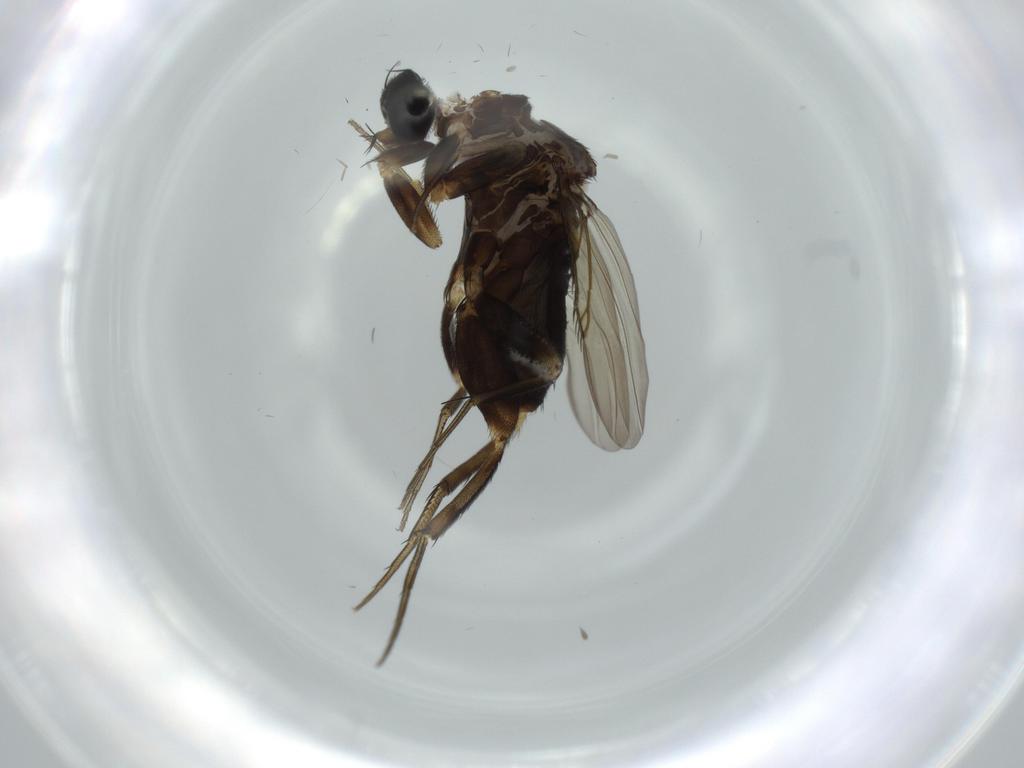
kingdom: Animalia
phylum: Arthropoda
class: Insecta
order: Diptera
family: Phoridae
